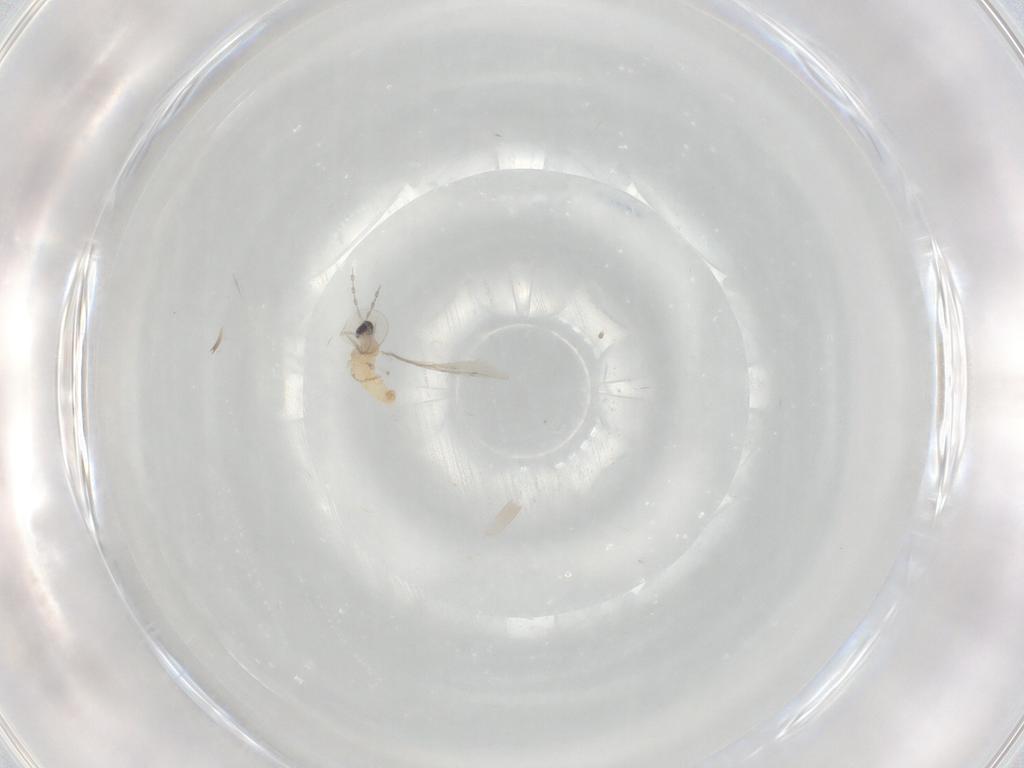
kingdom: Animalia
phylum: Arthropoda
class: Insecta
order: Diptera
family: Cecidomyiidae
